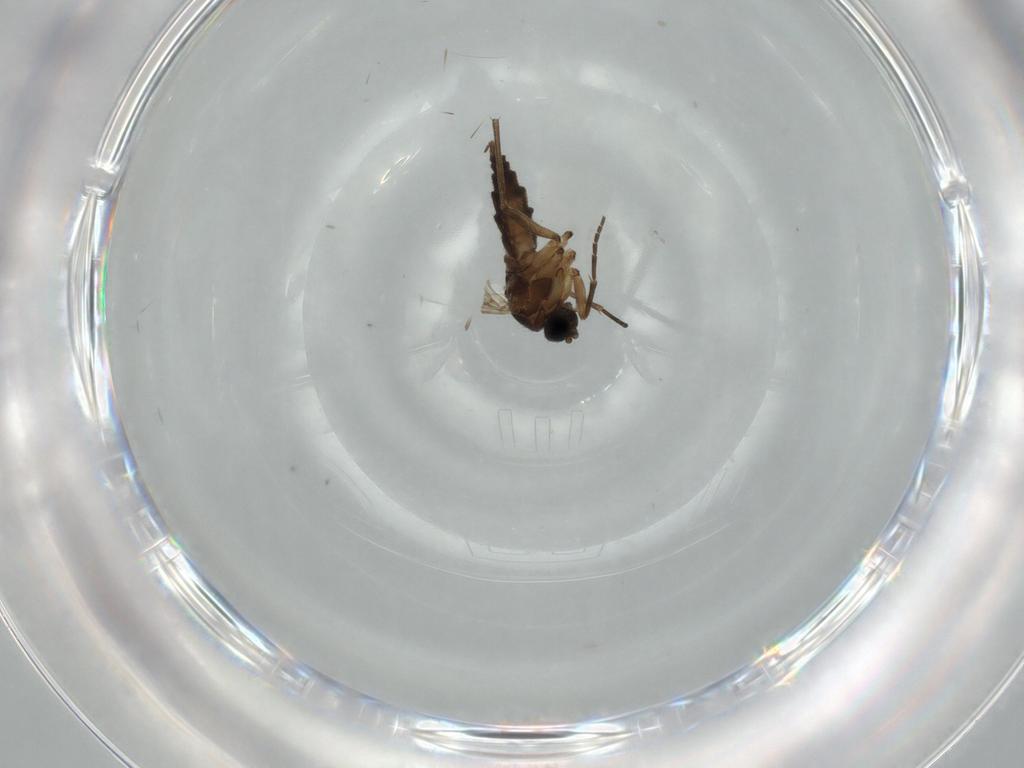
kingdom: Animalia
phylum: Arthropoda
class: Insecta
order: Diptera
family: Sciaridae
